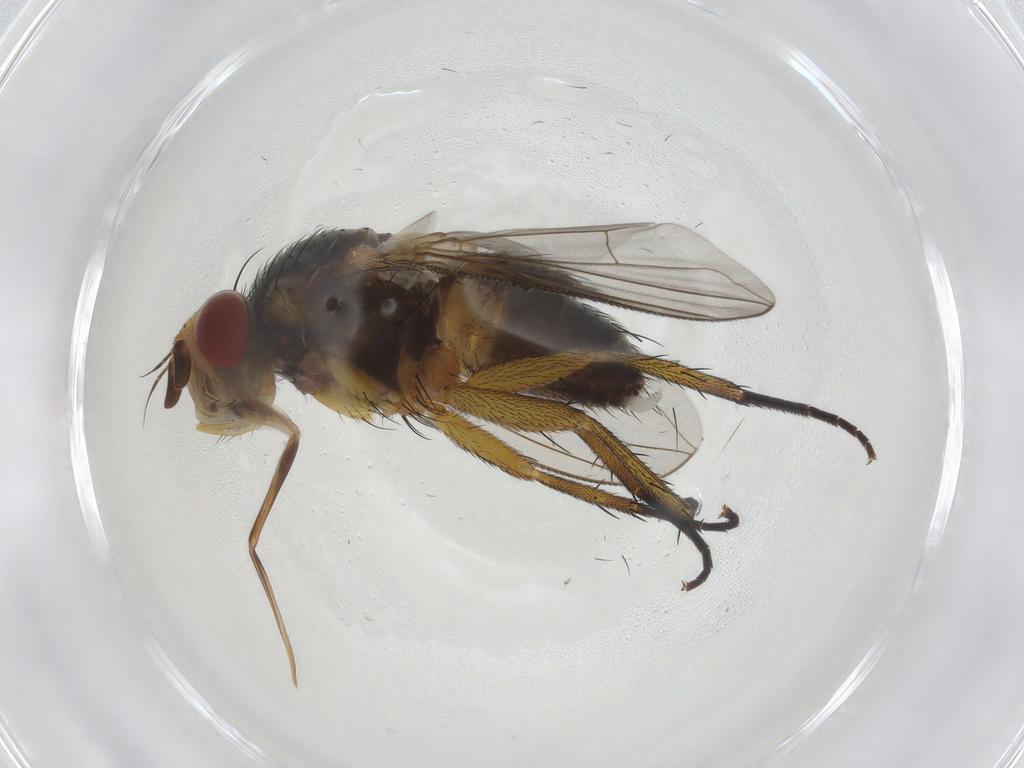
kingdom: Animalia
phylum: Arthropoda
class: Insecta
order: Diptera
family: Tachinidae
